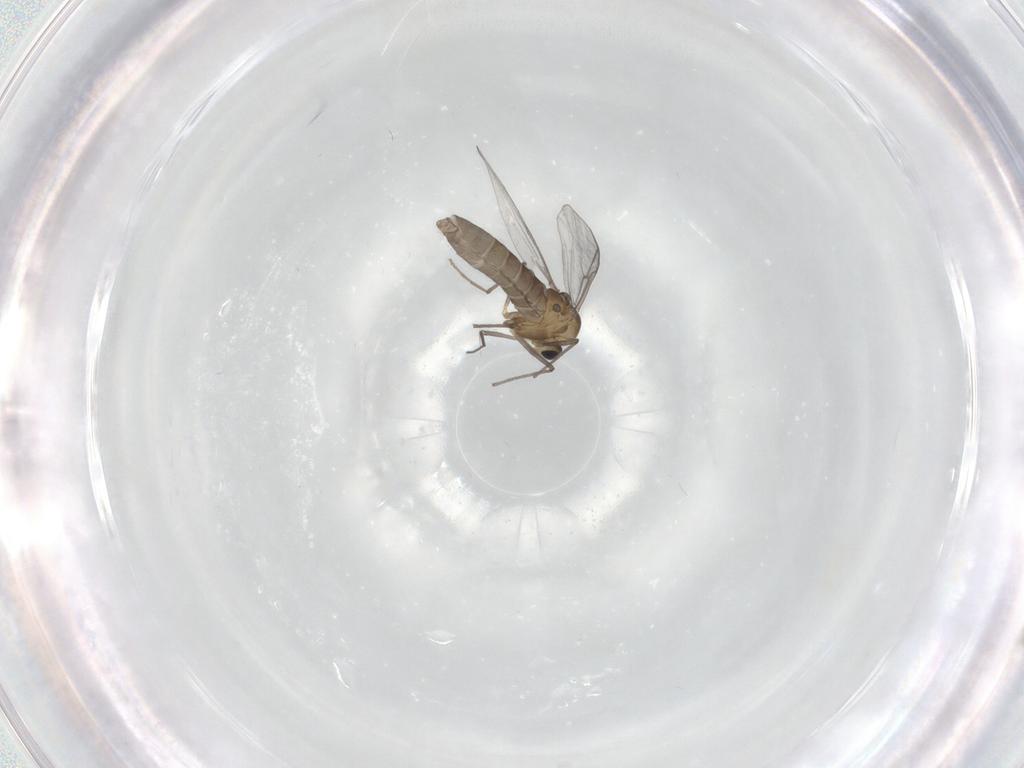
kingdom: Animalia
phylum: Arthropoda
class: Insecta
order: Diptera
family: Chironomidae
